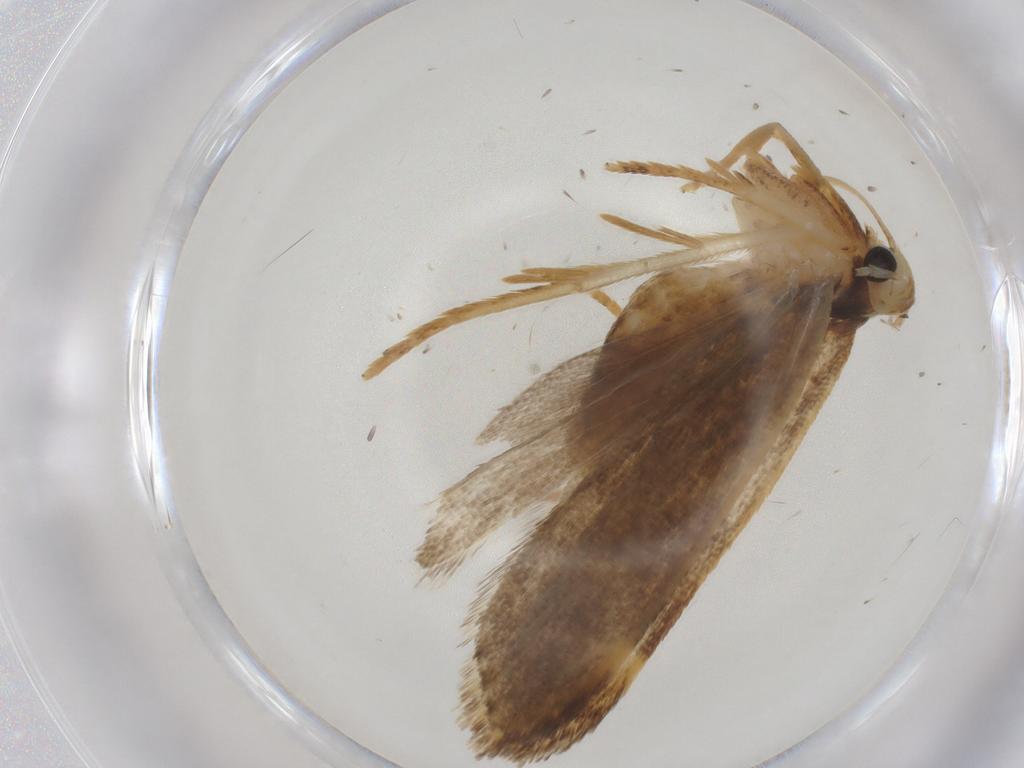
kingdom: Animalia
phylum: Arthropoda
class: Insecta
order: Lepidoptera
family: Gelechiidae
